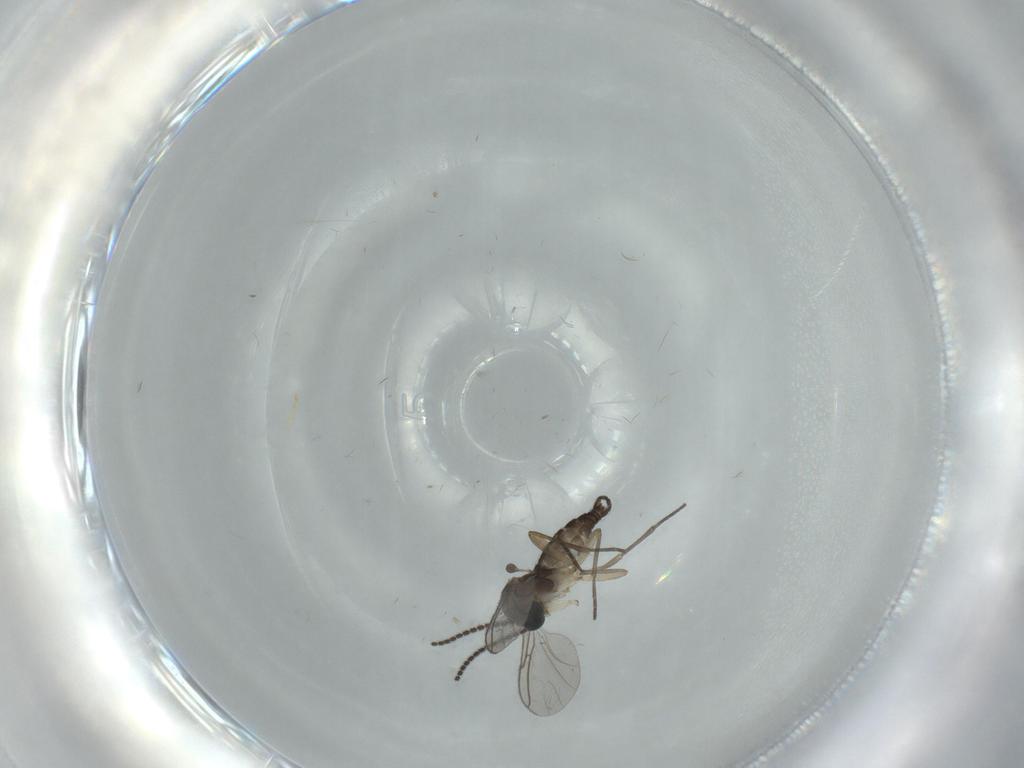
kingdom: Animalia
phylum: Arthropoda
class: Insecta
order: Diptera
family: Sciaridae
